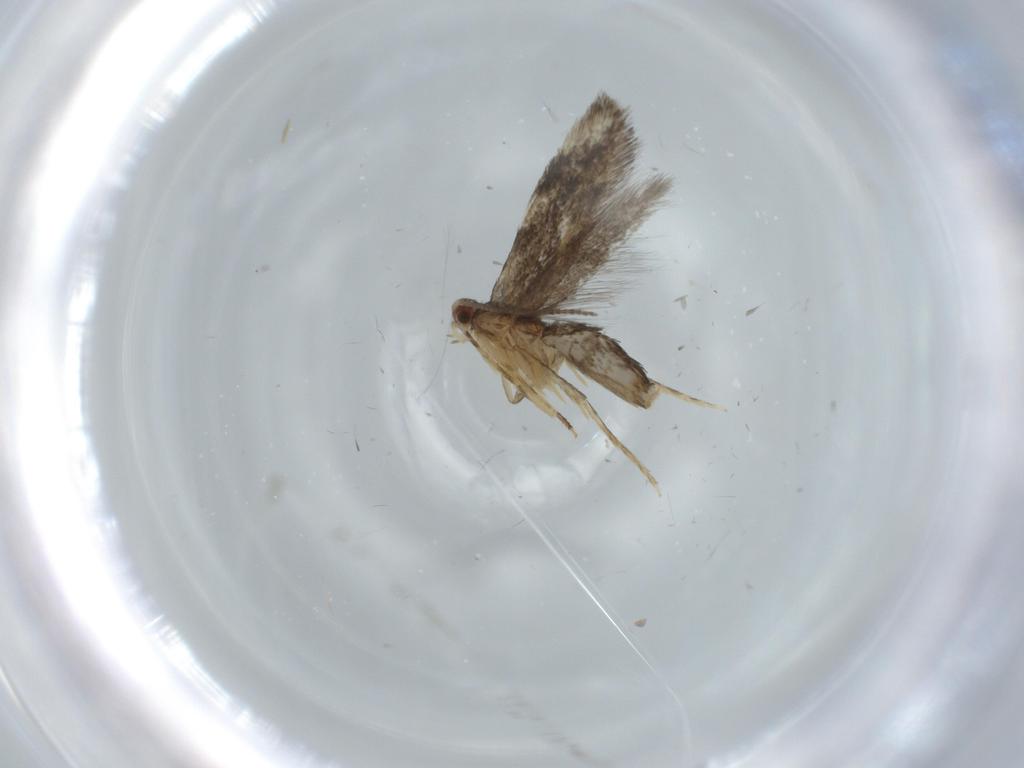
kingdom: Animalia
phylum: Arthropoda
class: Insecta
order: Lepidoptera
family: Tineidae
